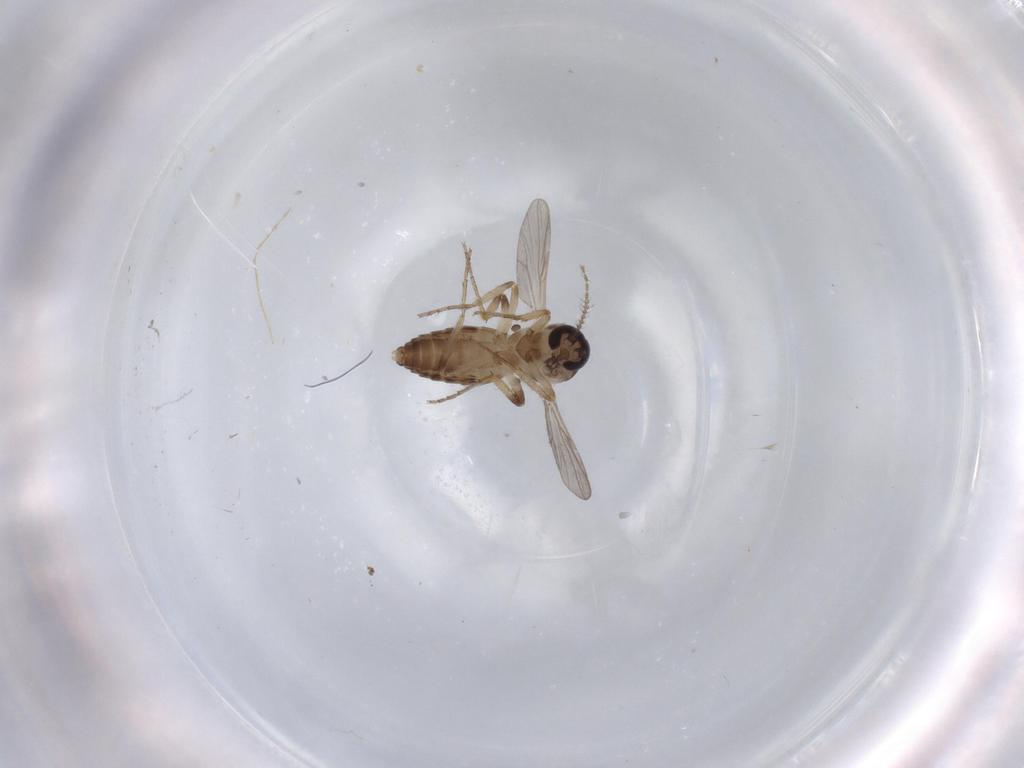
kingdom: Animalia
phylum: Arthropoda
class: Insecta
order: Diptera
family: Ceratopogonidae
